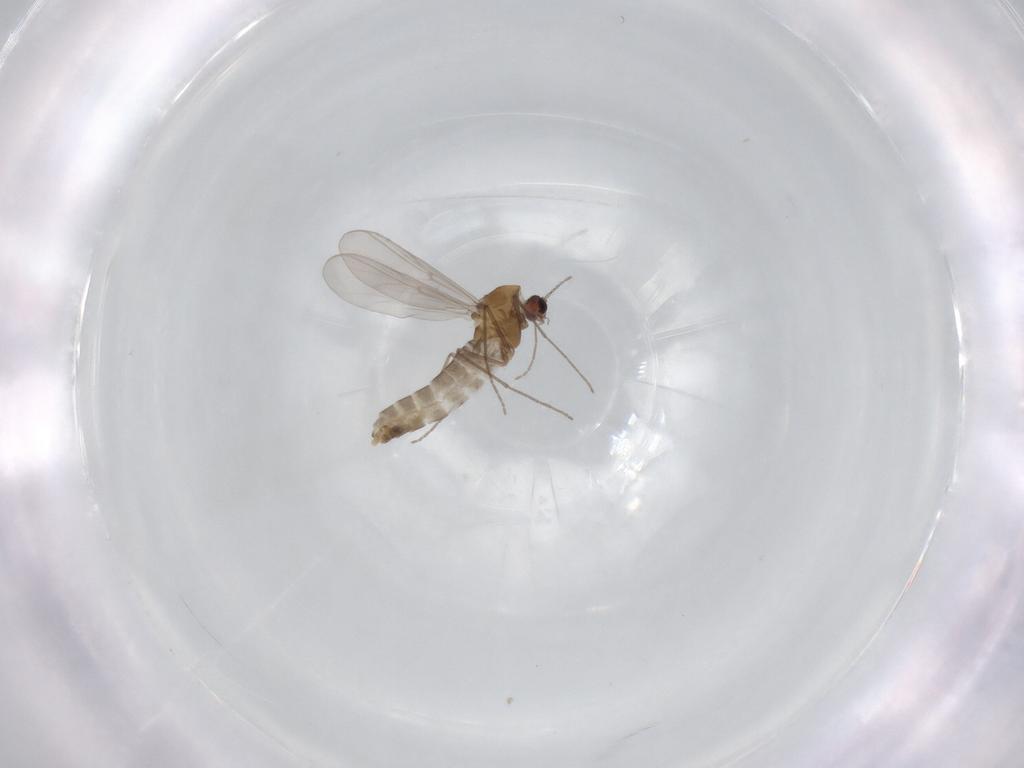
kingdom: Animalia
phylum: Arthropoda
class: Insecta
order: Diptera
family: Chironomidae
